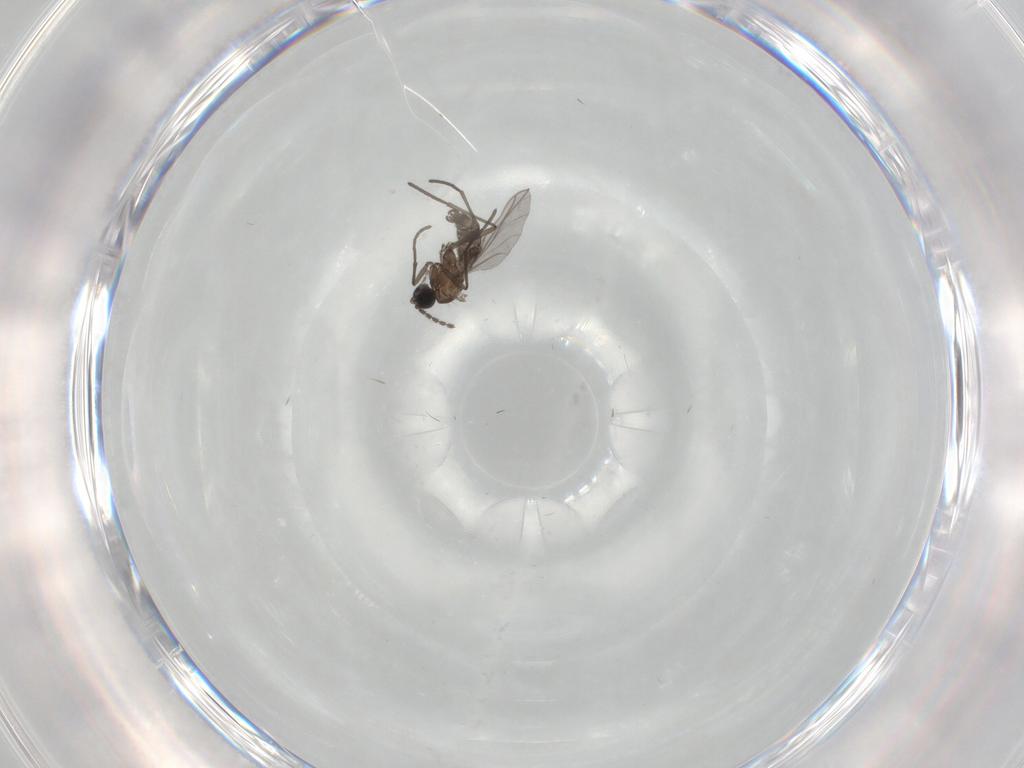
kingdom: Animalia
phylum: Arthropoda
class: Insecta
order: Diptera
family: Sciaridae
